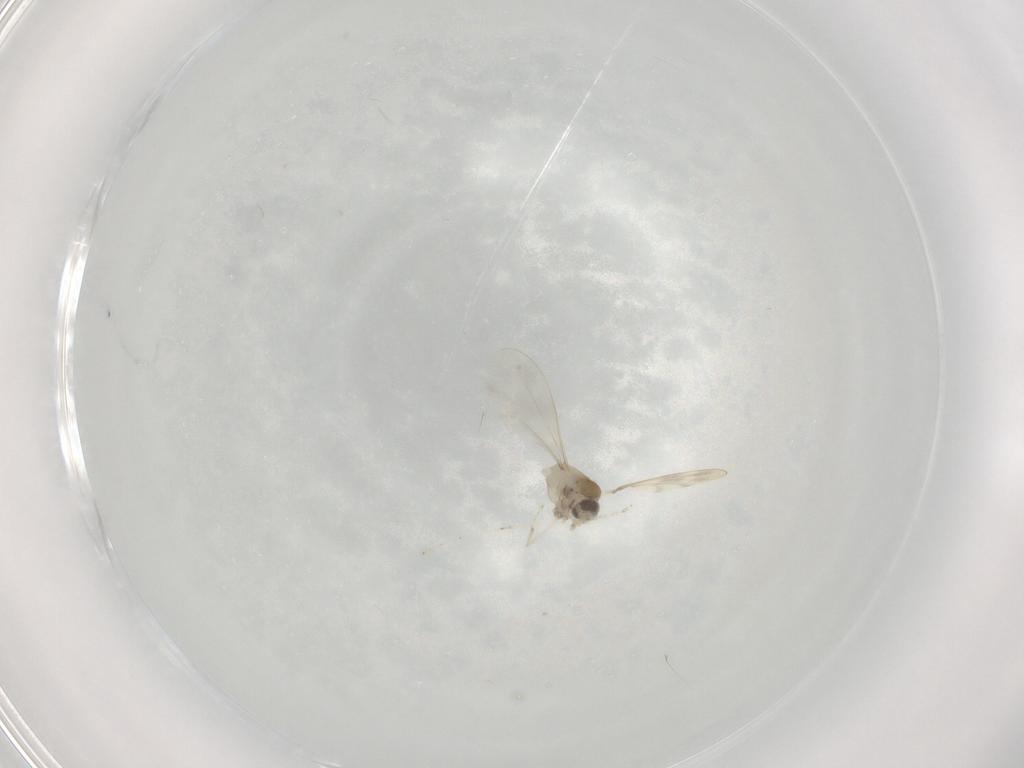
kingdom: Animalia
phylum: Arthropoda
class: Insecta
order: Diptera
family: Cecidomyiidae
